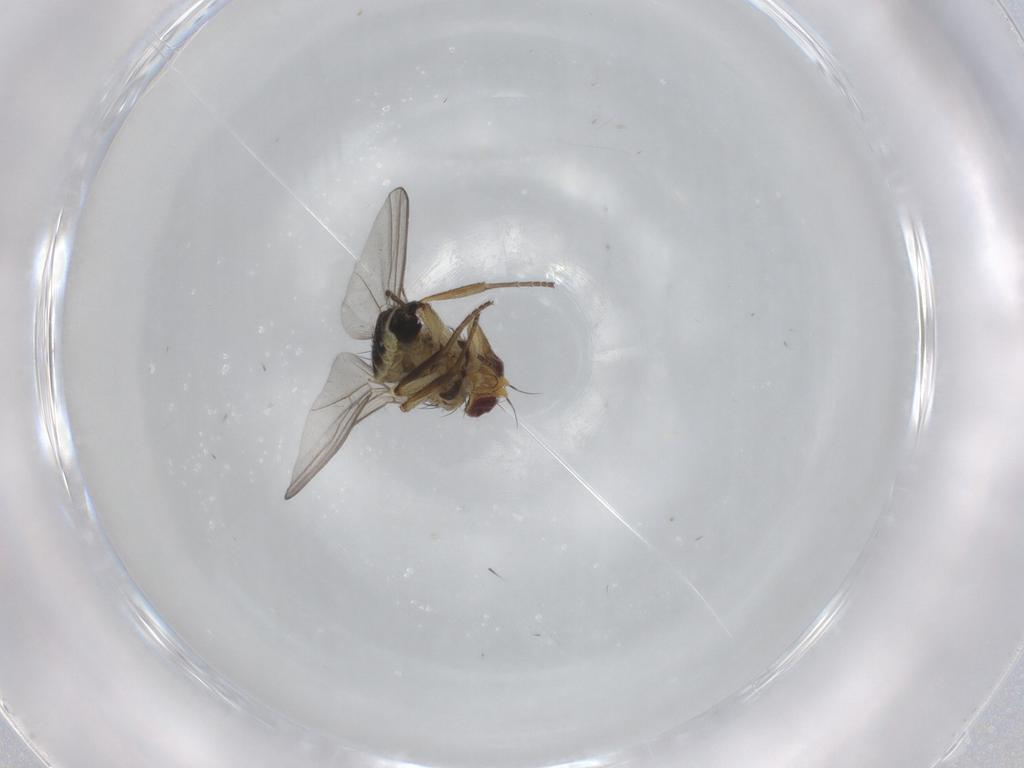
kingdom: Animalia
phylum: Arthropoda
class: Insecta
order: Diptera
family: Agromyzidae
